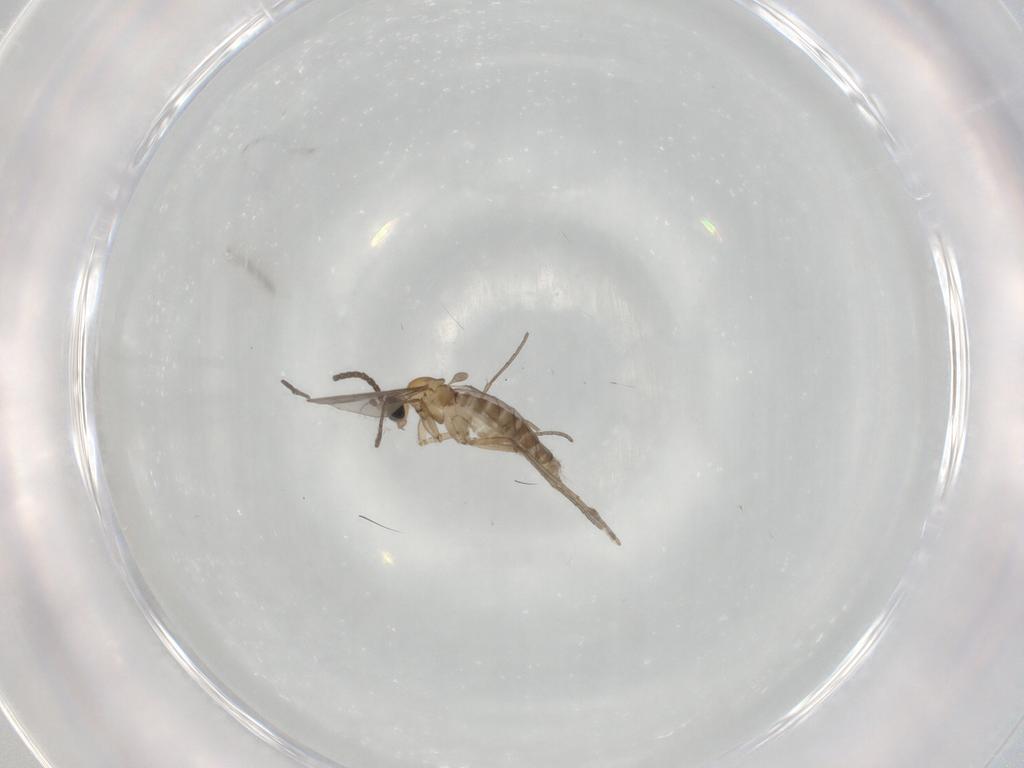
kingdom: Animalia
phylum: Arthropoda
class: Insecta
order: Diptera
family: Sciaridae
